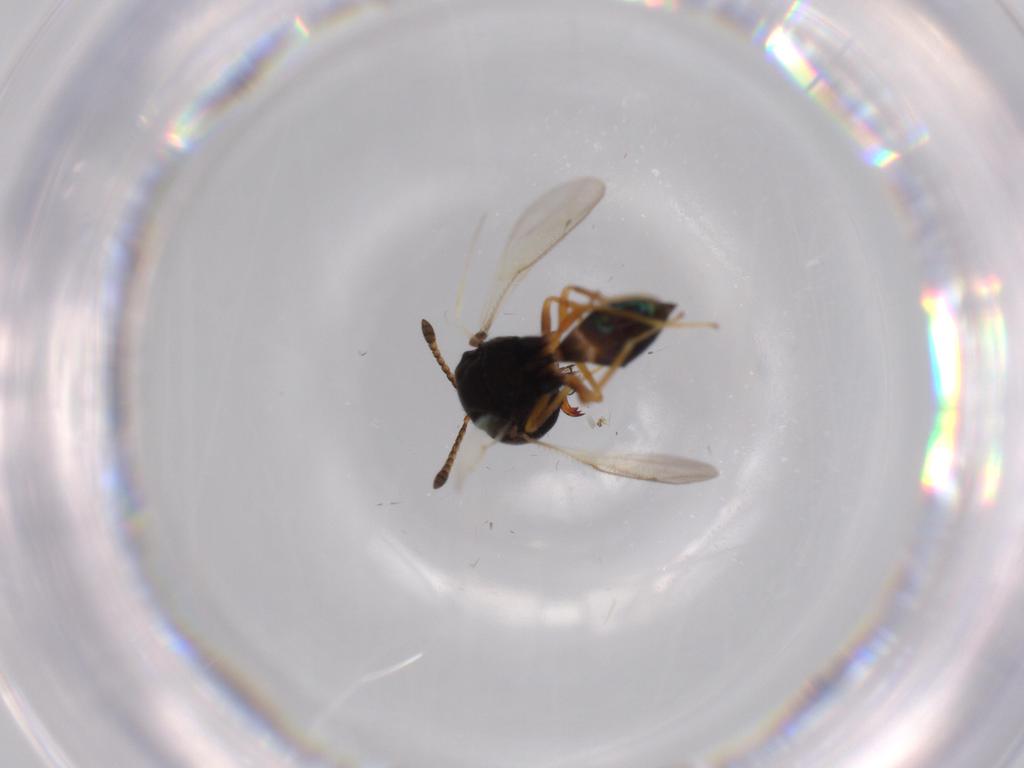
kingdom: Animalia
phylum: Arthropoda
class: Insecta
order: Hymenoptera
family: Pteromalidae
